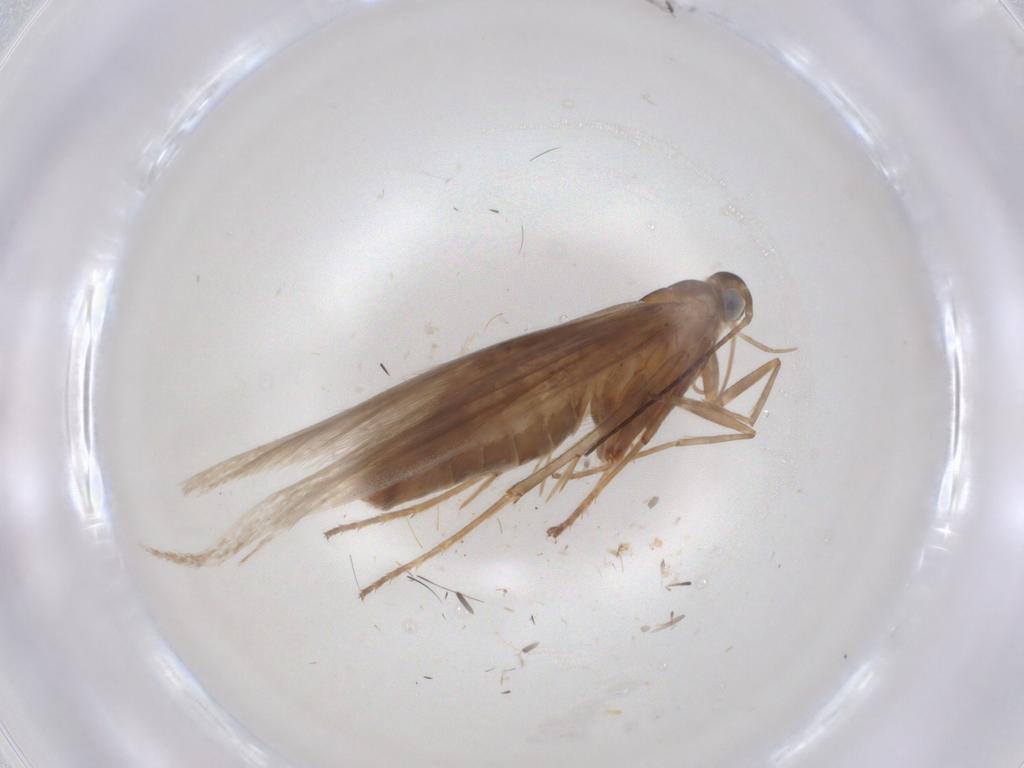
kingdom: Animalia
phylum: Arthropoda
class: Insecta
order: Lepidoptera
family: Coleophoridae
